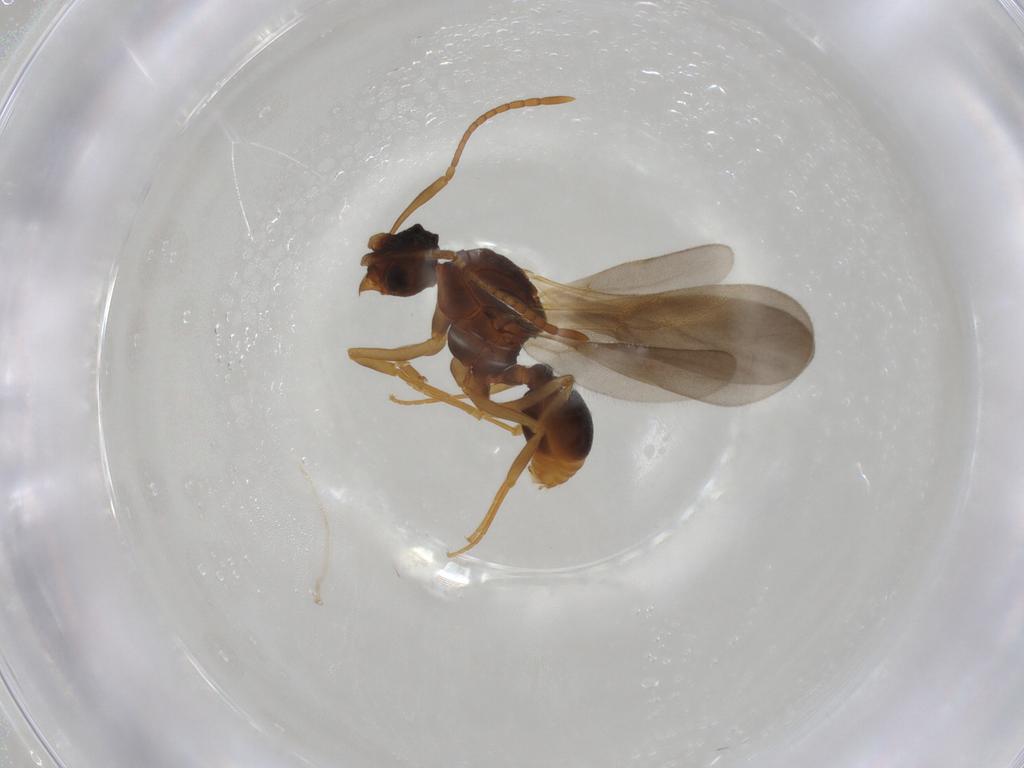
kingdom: Animalia
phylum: Arthropoda
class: Insecta
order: Hymenoptera
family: Formicidae
